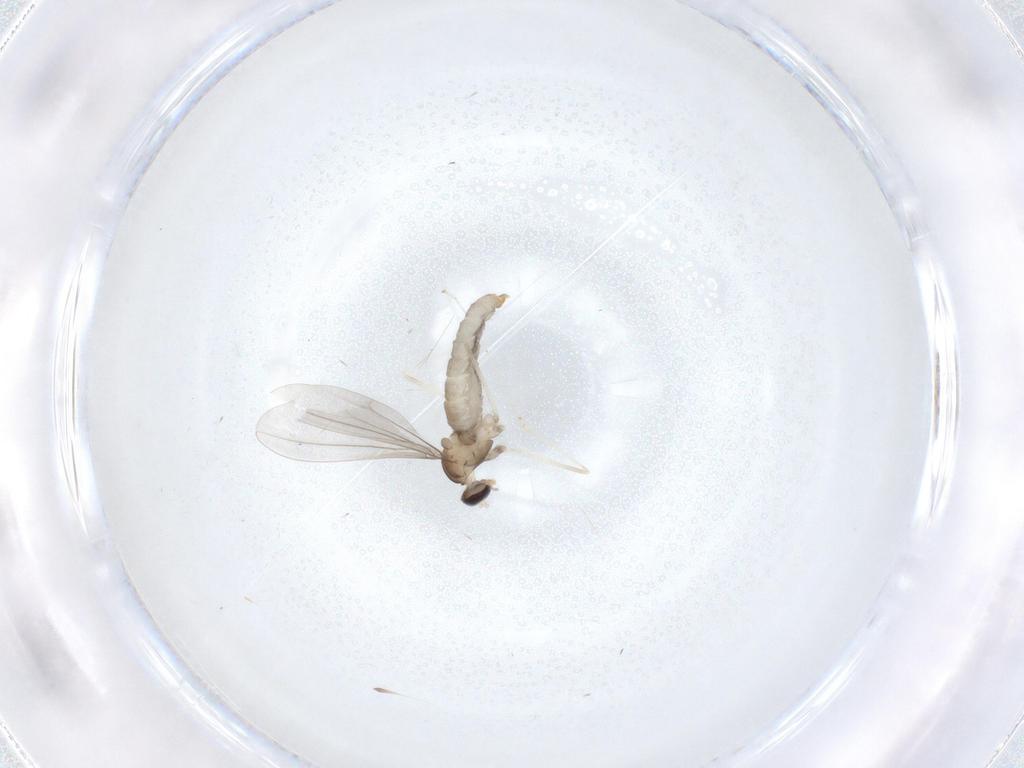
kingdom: Animalia
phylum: Arthropoda
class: Insecta
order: Diptera
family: Cecidomyiidae
